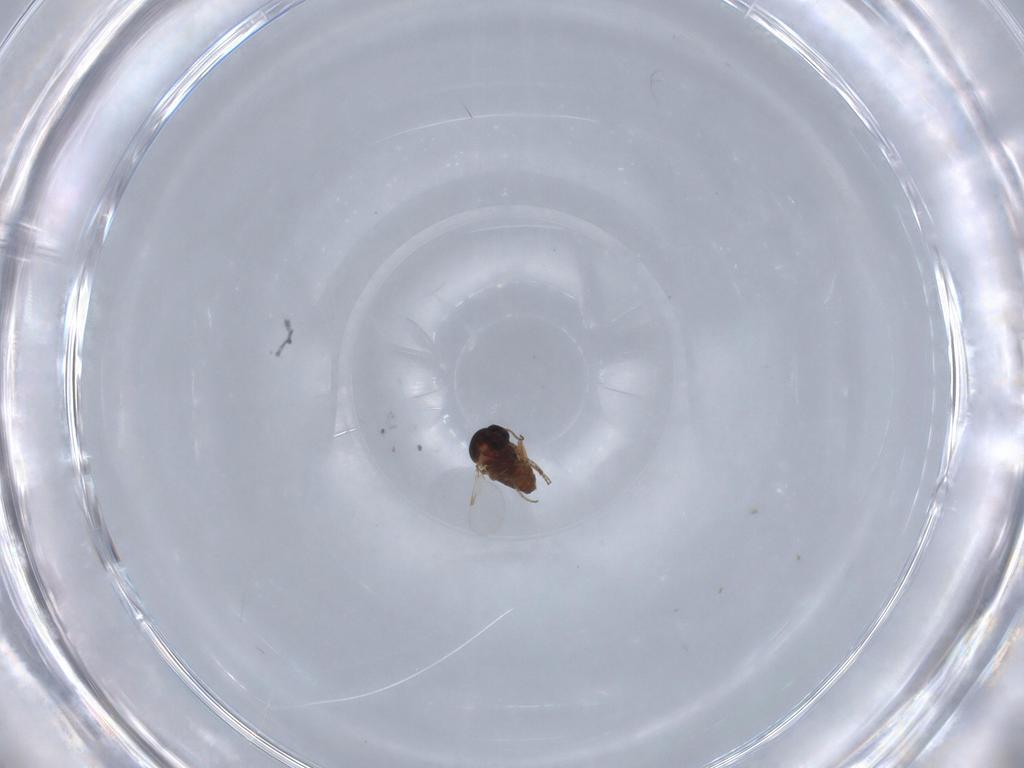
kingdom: Animalia
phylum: Arthropoda
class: Insecta
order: Diptera
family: Ceratopogonidae
